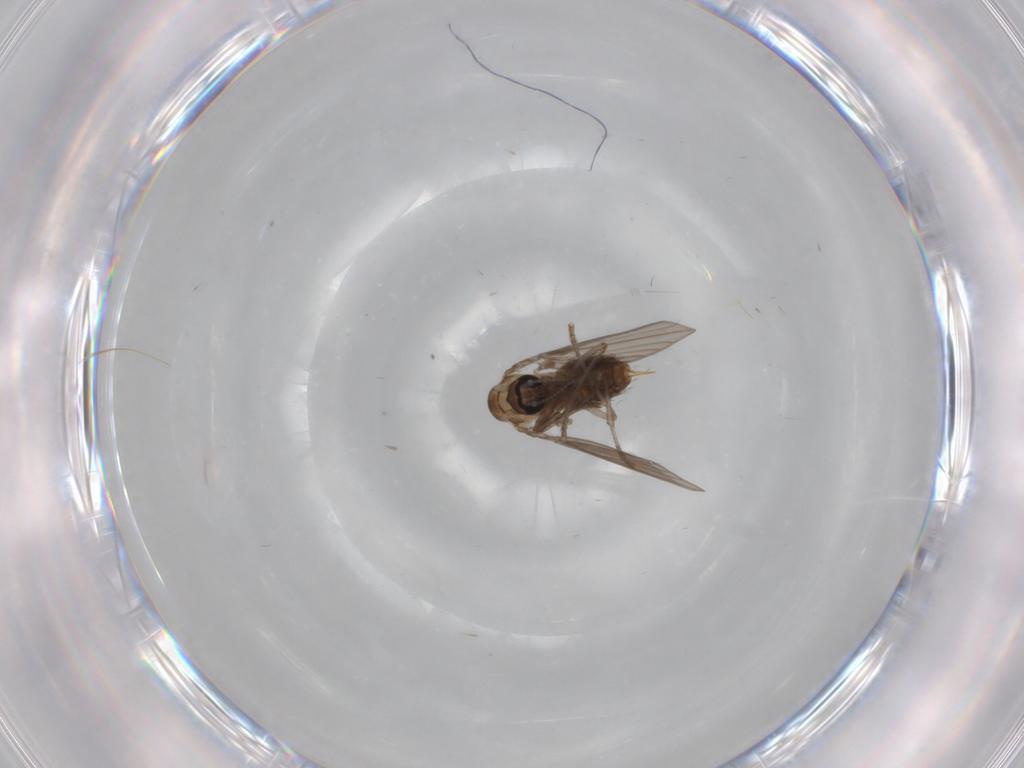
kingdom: Animalia
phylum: Arthropoda
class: Insecta
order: Diptera
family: Psychodidae
